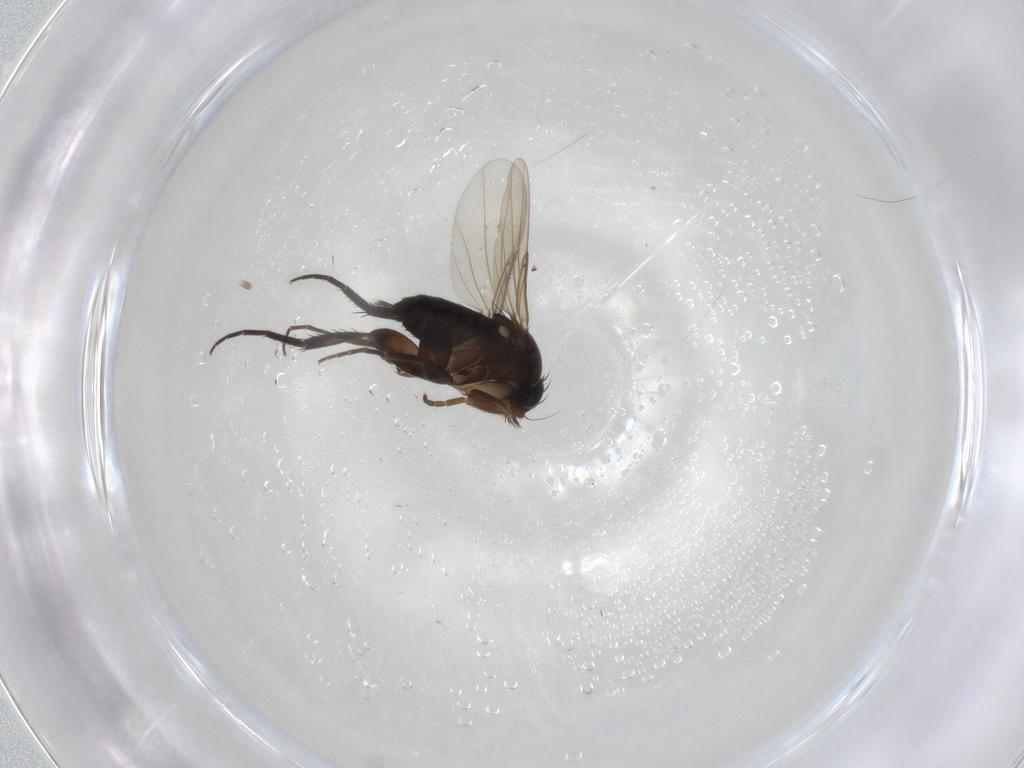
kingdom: Animalia
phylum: Arthropoda
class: Insecta
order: Diptera
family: Phoridae
